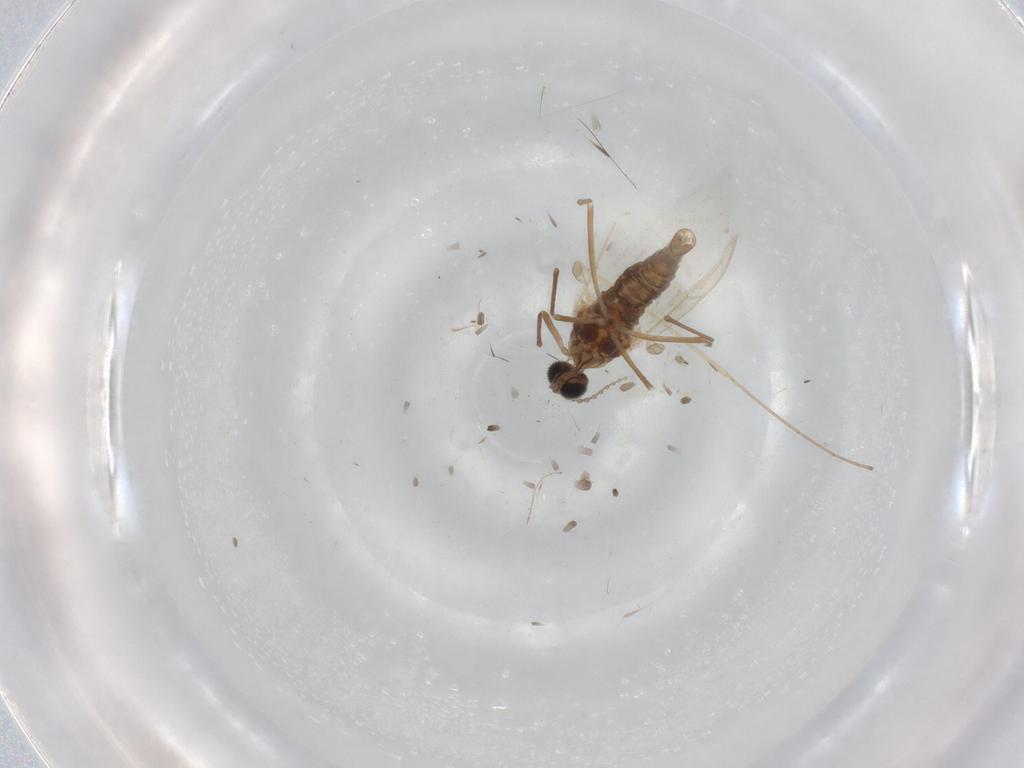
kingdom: Animalia
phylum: Arthropoda
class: Insecta
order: Diptera
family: Cecidomyiidae
